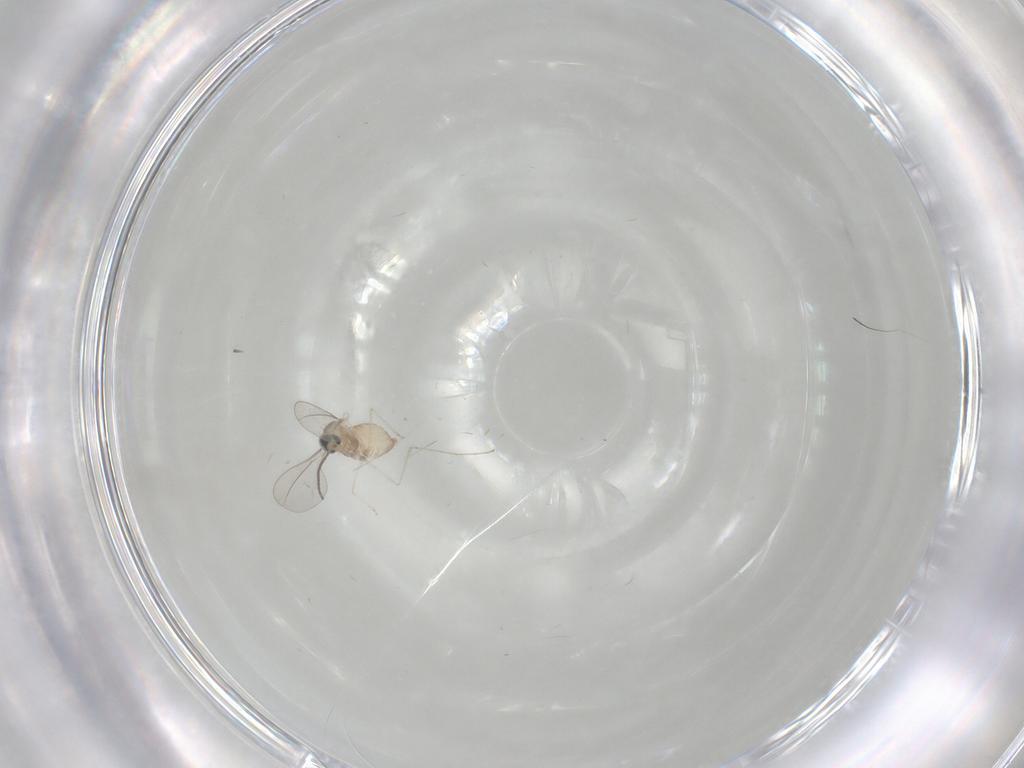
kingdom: Animalia
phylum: Arthropoda
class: Insecta
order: Diptera
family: Cecidomyiidae
